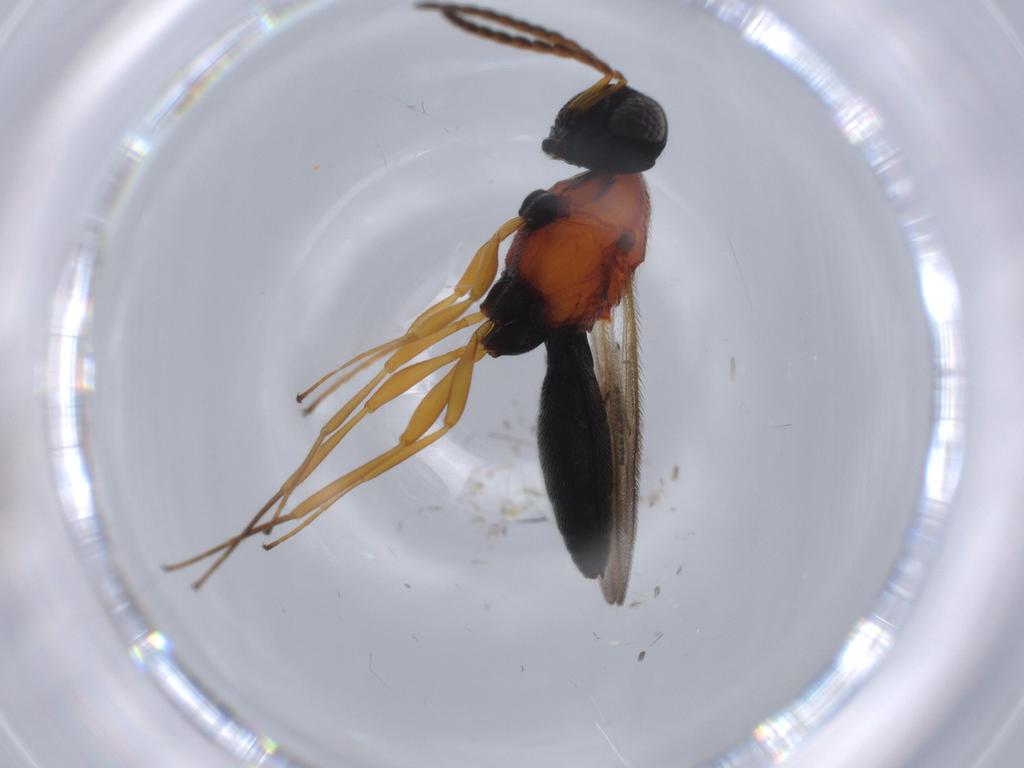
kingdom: Animalia
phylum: Arthropoda
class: Insecta
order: Hymenoptera
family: Scelionidae
